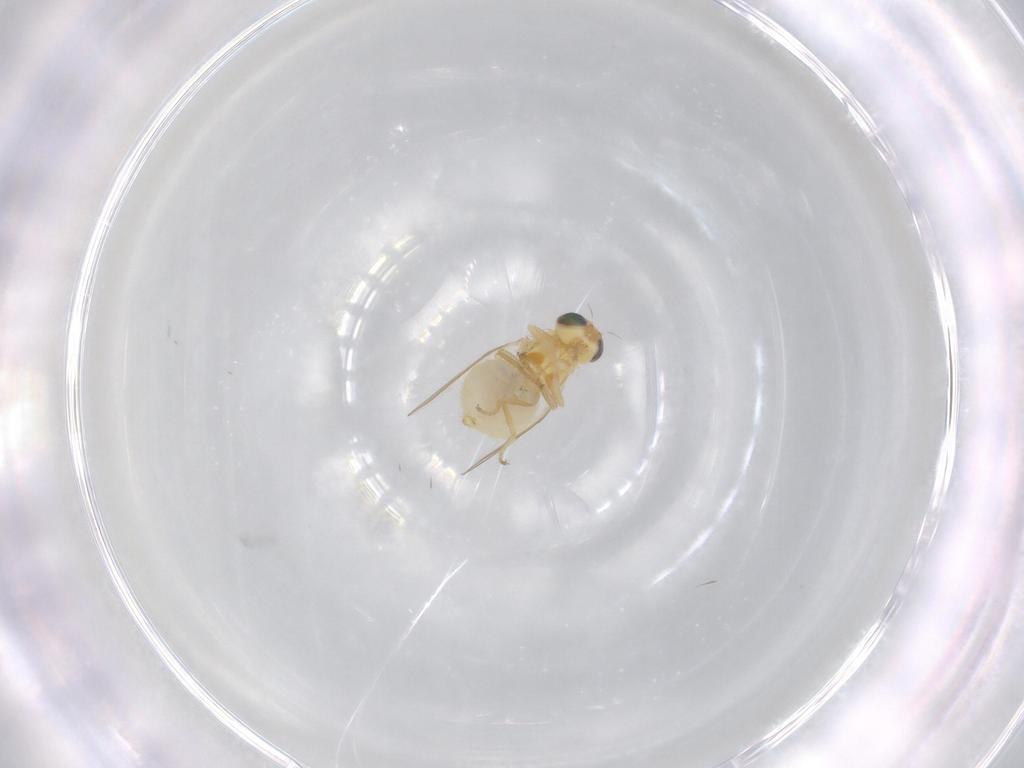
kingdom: Animalia
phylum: Arthropoda
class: Insecta
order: Diptera
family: Chyromyidae
